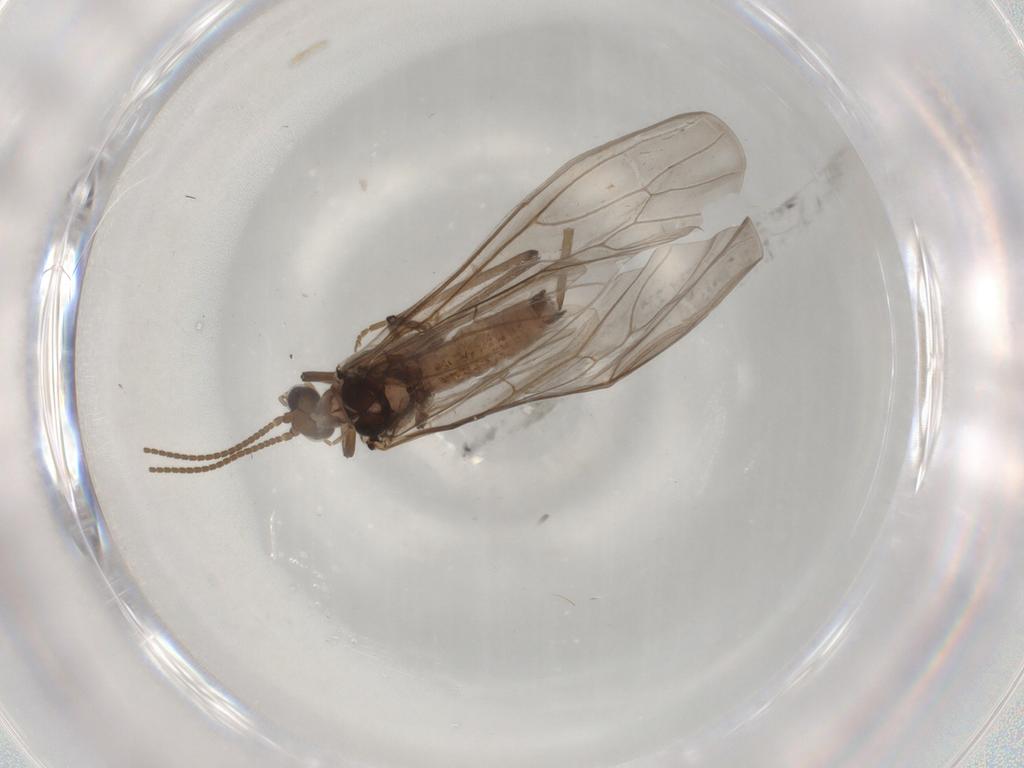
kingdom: Animalia
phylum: Arthropoda
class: Insecta
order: Neuroptera
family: Coniopterygidae
